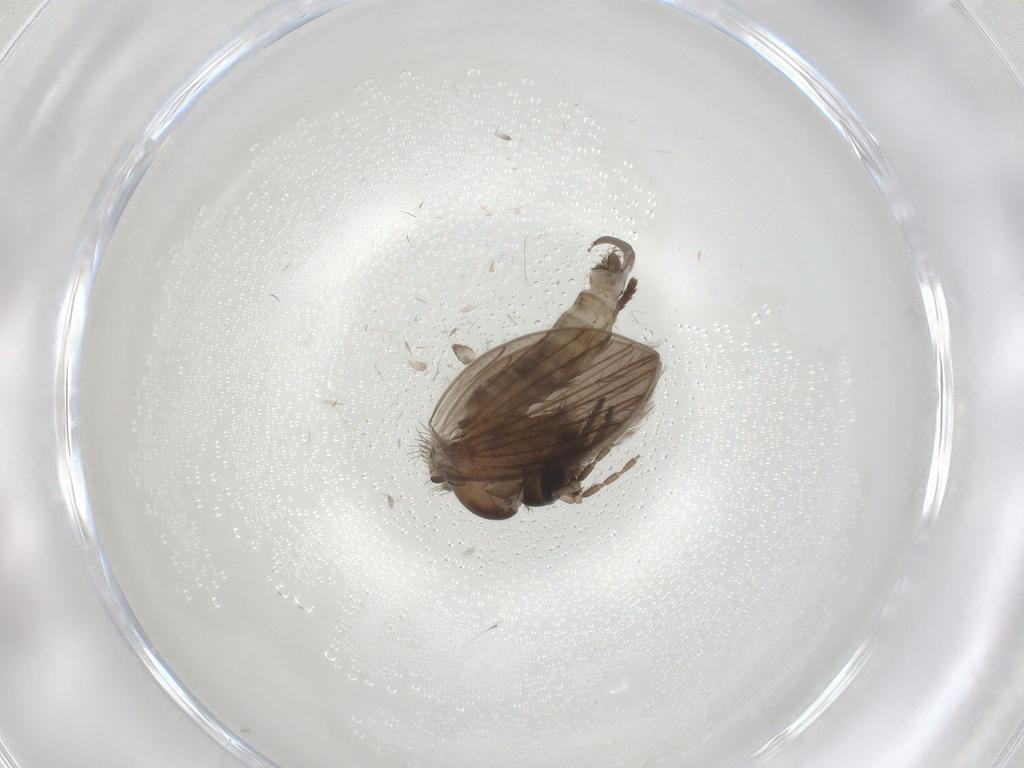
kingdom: Animalia
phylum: Arthropoda
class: Insecta
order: Diptera
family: Psychodidae
